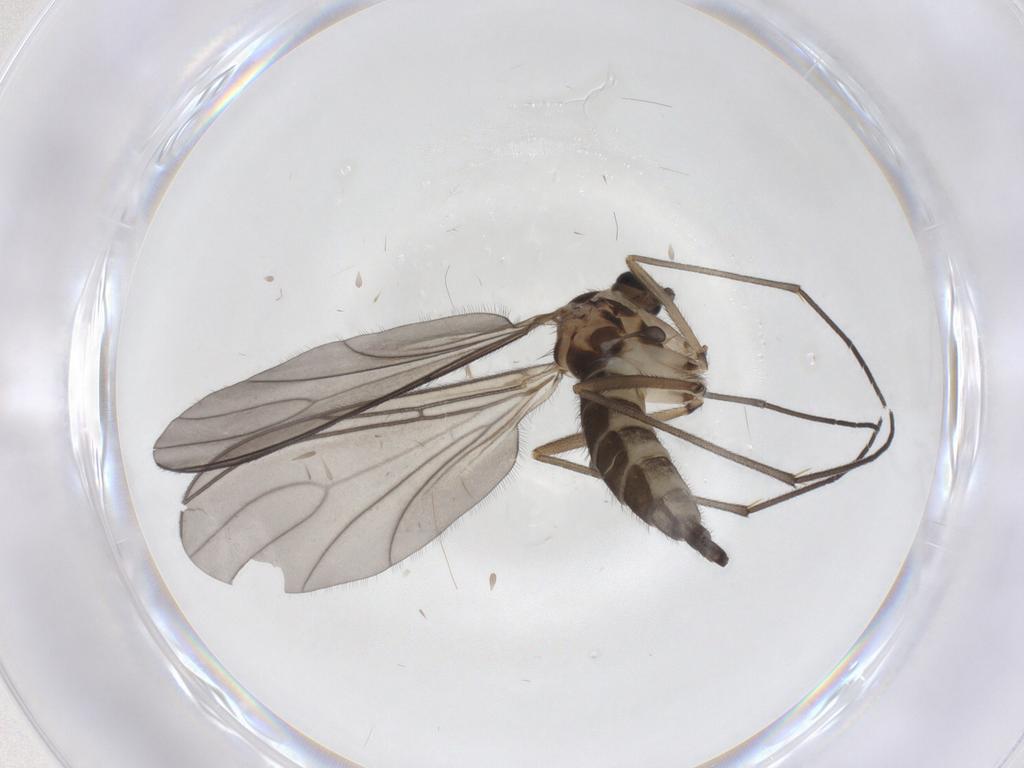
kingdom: Animalia
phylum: Arthropoda
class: Insecta
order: Diptera
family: Sciaridae
